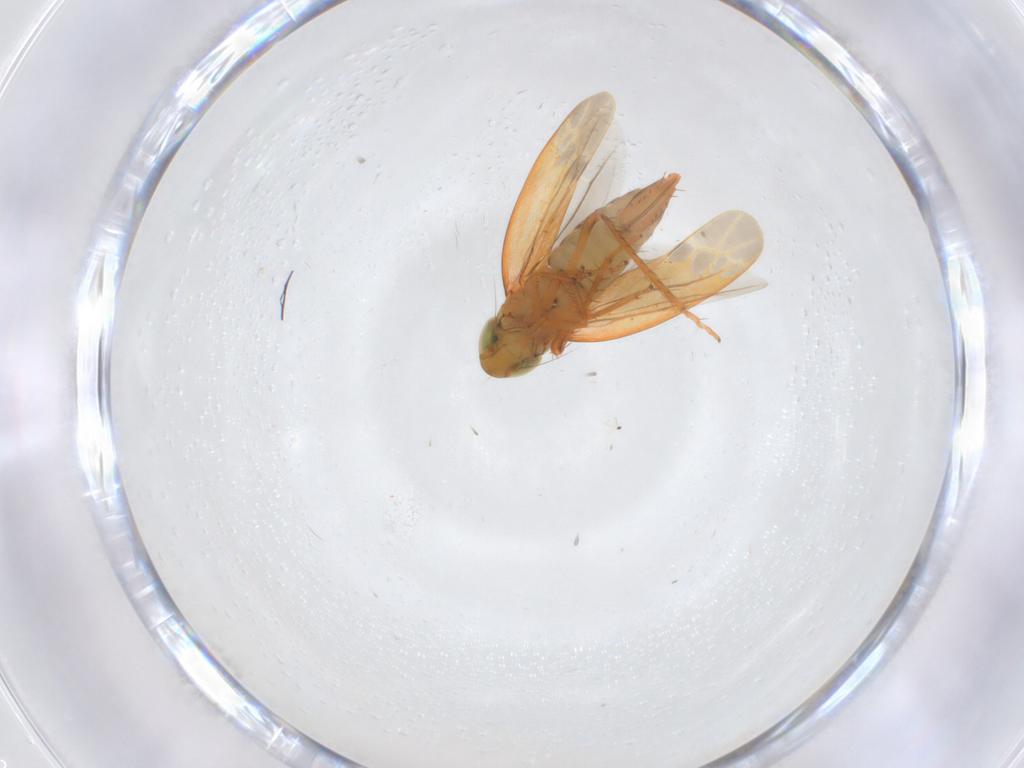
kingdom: Animalia
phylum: Arthropoda
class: Insecta
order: Hemiptera
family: Cicadellidae
